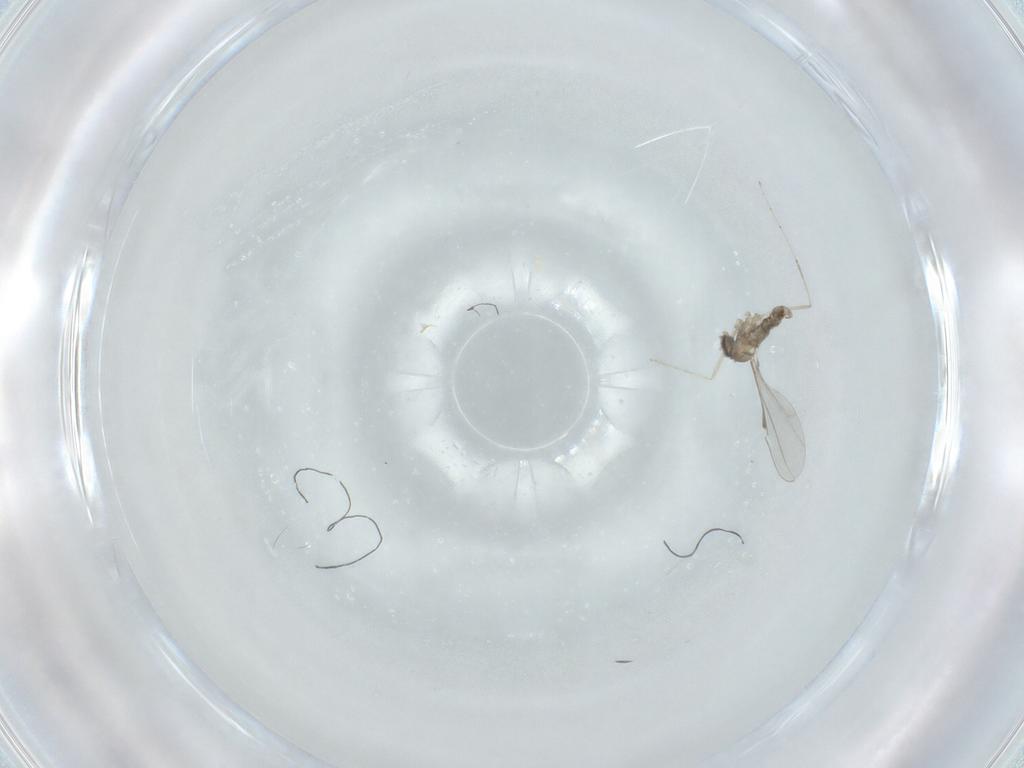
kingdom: Animalia
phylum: Arthropoda
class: Insecta
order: Diptera
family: Cecidomyiidae
